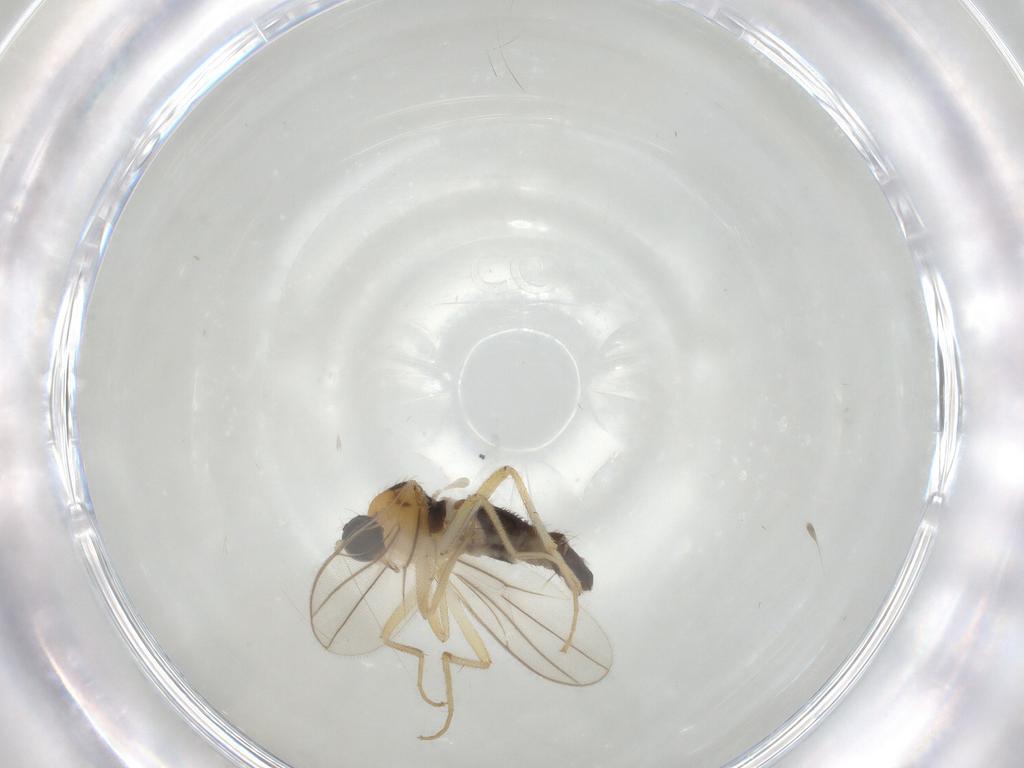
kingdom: Animalia
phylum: Arthropoda
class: Insecta
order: Diptera
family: Hybotidae
